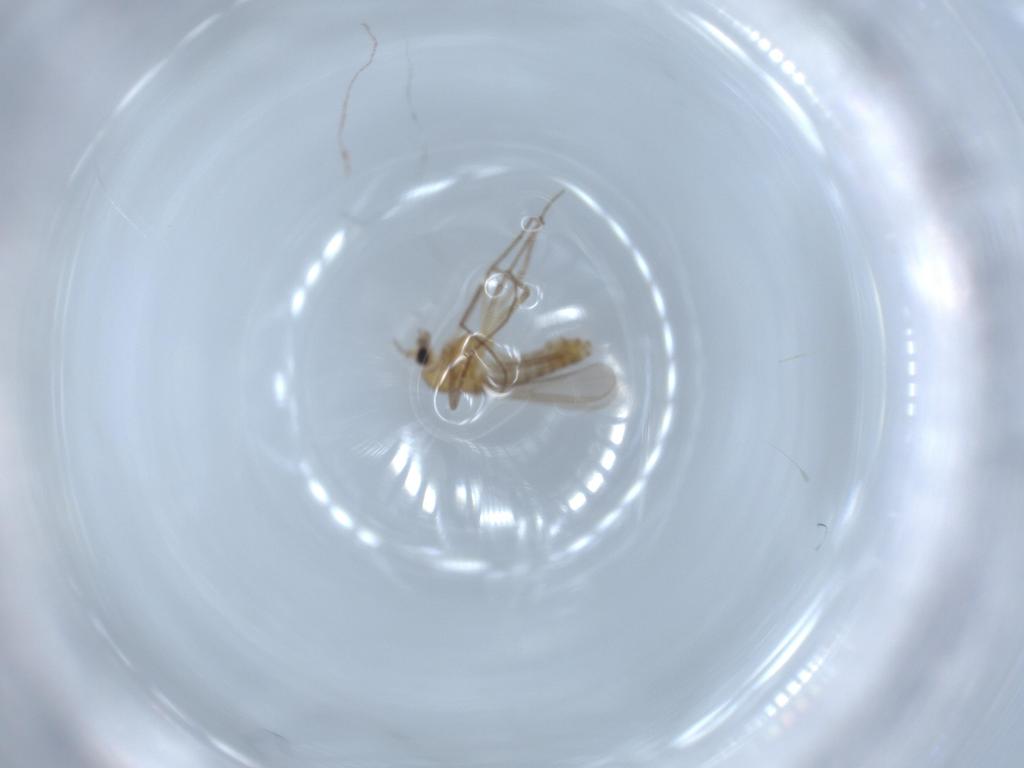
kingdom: Animalia
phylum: Arthropoda
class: Insecta
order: Diptera
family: Chironomidae
